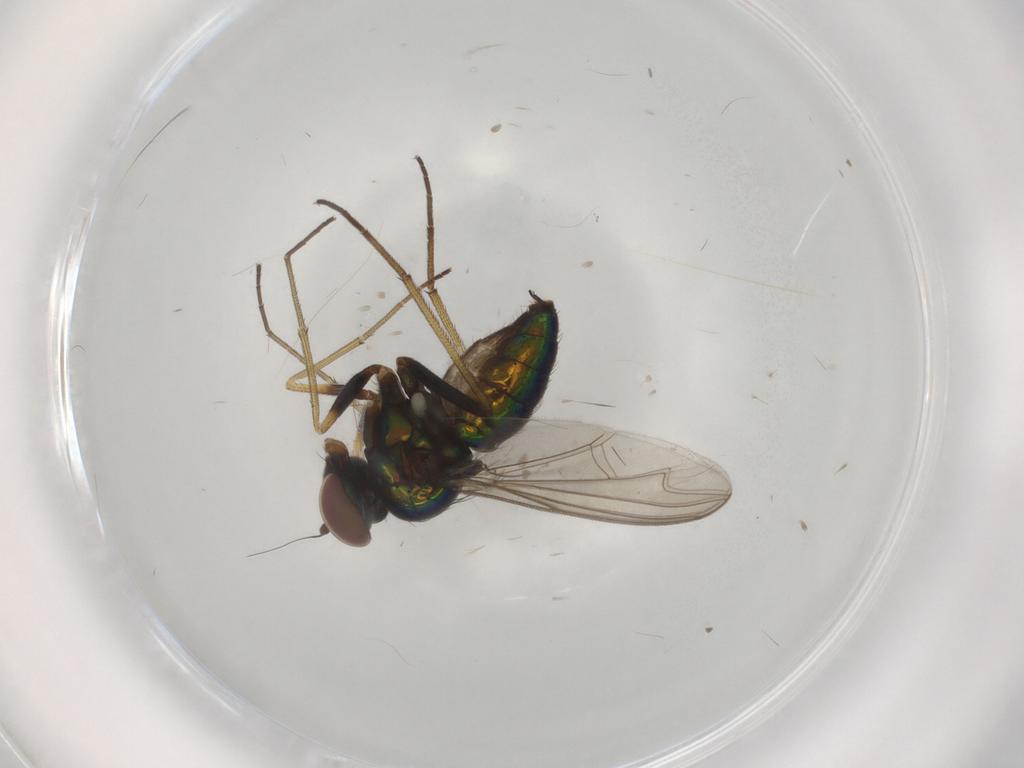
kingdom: Animalia
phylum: Arthropoda
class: Insecta
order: Diptera
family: Dolichopodidae
